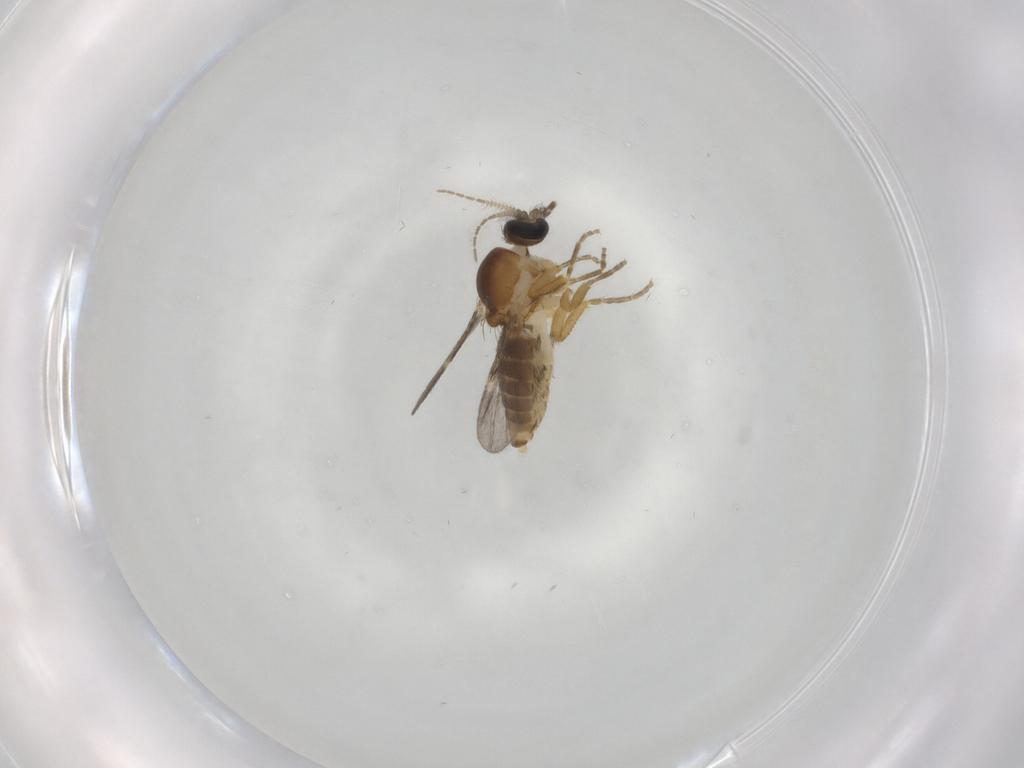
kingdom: Animalia
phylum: Arthropoda
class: Insecta
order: Diptera
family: Ceratopogonidae
